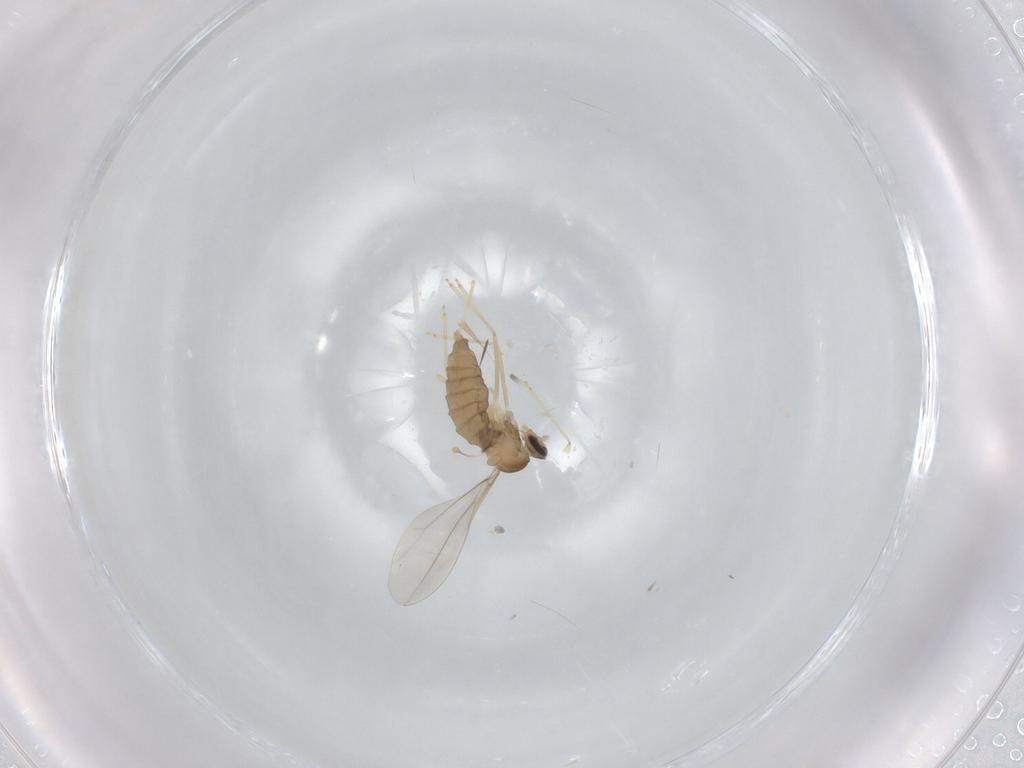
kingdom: Animalia
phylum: Arthropoda
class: Insecta
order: Diptera
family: Cecidomyiidae
